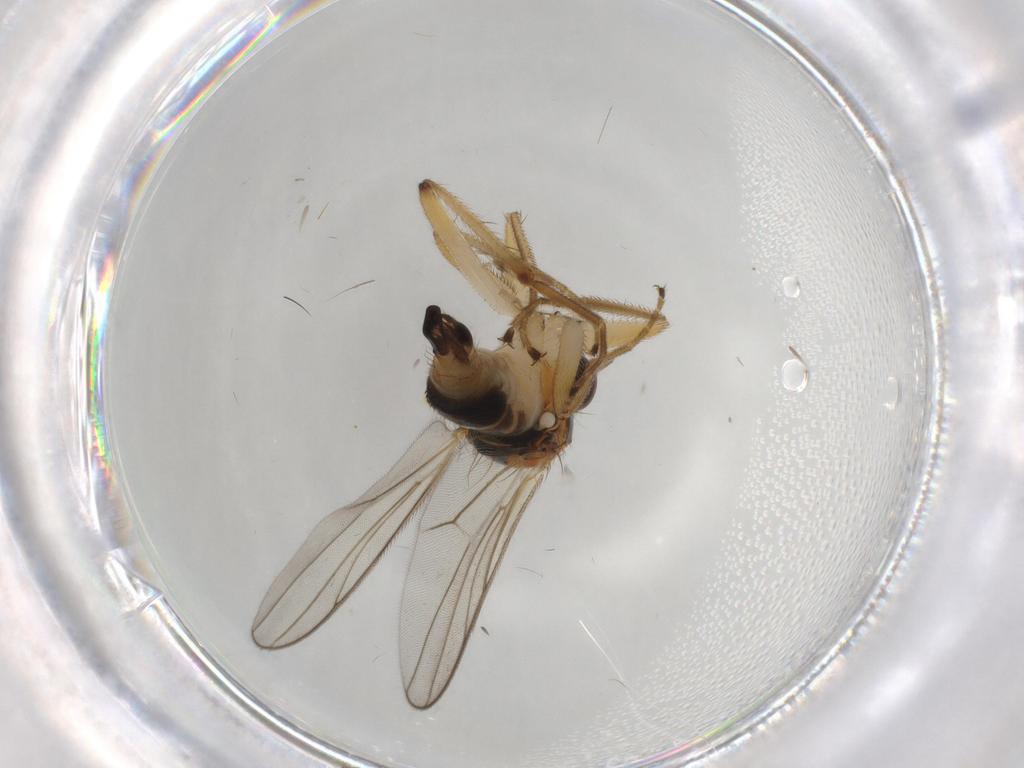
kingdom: Animalia
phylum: Arthropoda
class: Insecta
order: Diptera
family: Hybotidae
